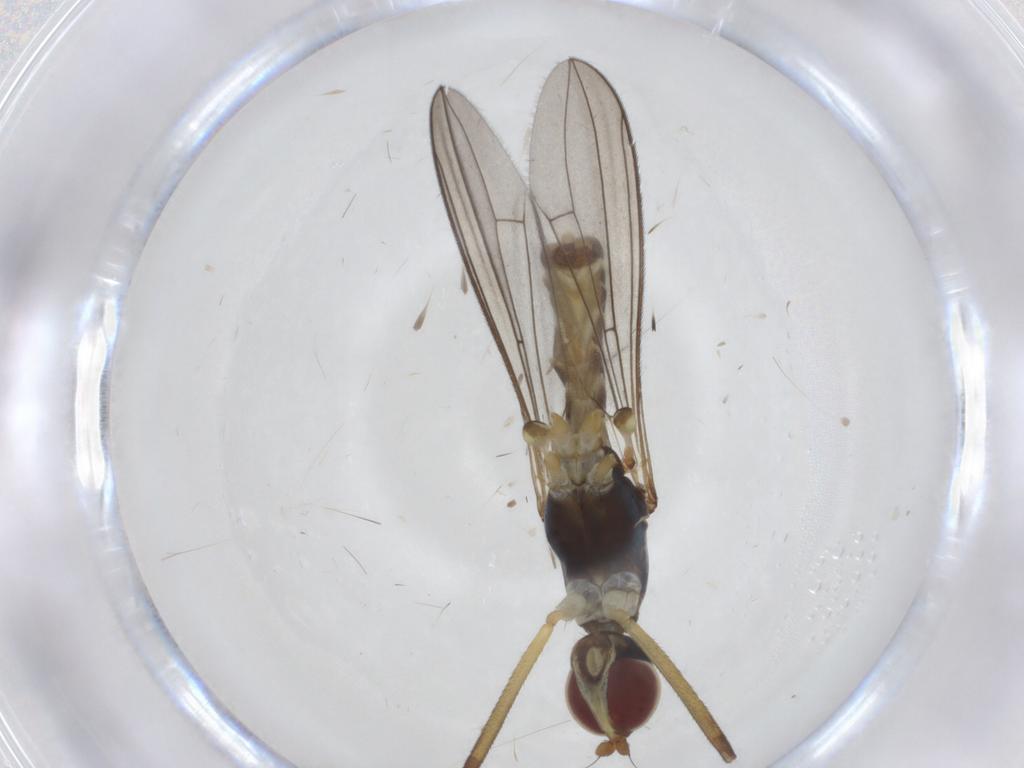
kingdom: Animalia
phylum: Arthropoda
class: Insecta
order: Diptera
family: Micropezidae
